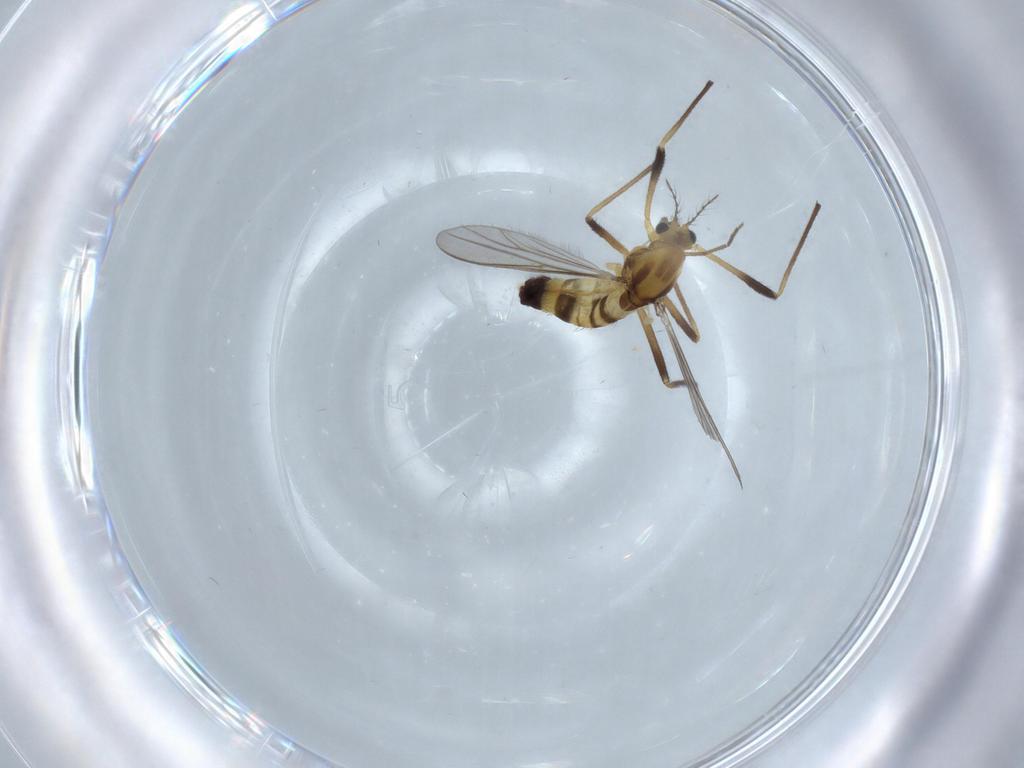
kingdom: Animalia
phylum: Arthropoda
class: Insecta
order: Diptera
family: Chironomidae
